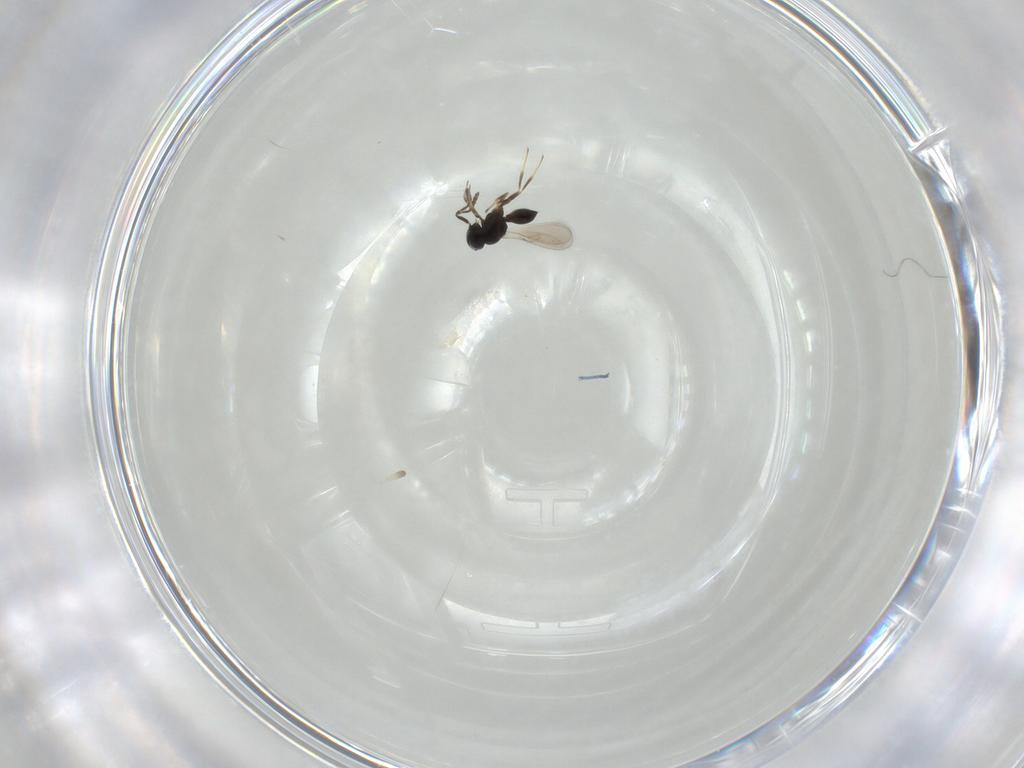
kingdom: Animalia
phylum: Arthropoda
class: Insecta
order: Hymenoptera
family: Scelionidae
